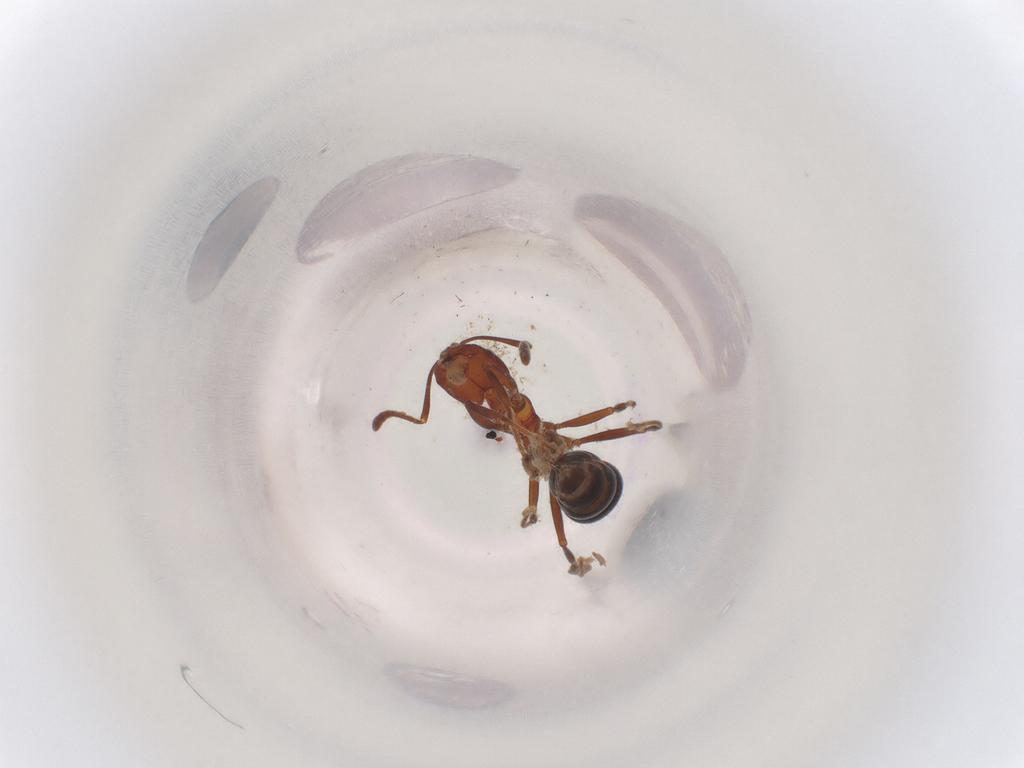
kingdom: Animalia
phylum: Arthropoda
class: Insecta
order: Hymenoptera
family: Formicidae
